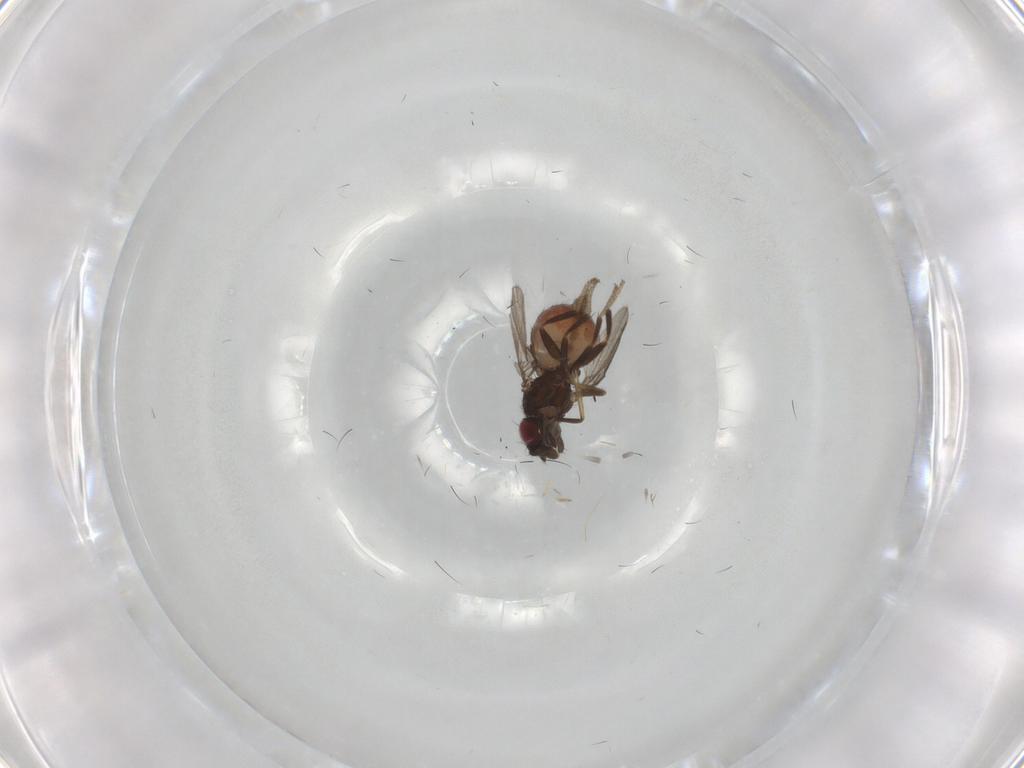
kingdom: Animalia
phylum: Arthropoda
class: Insecta
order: Diptera
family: Milichiidae
